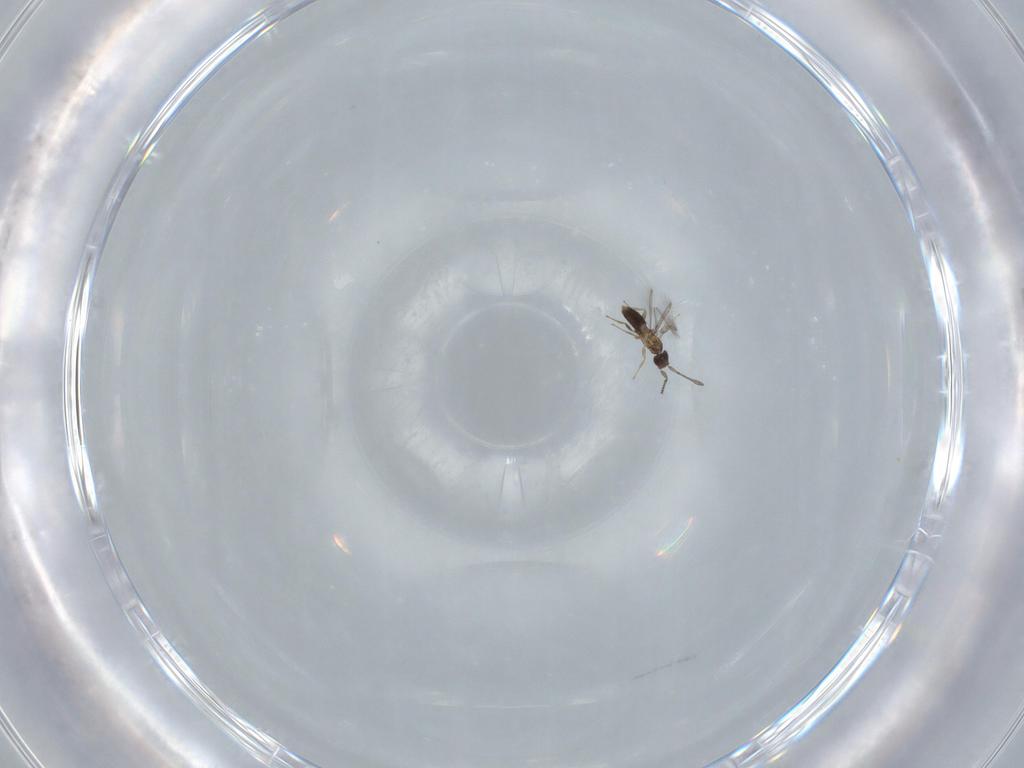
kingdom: Animalia
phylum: Arthropoda
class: Insecta
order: Hymenoptera
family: Mymaridae
